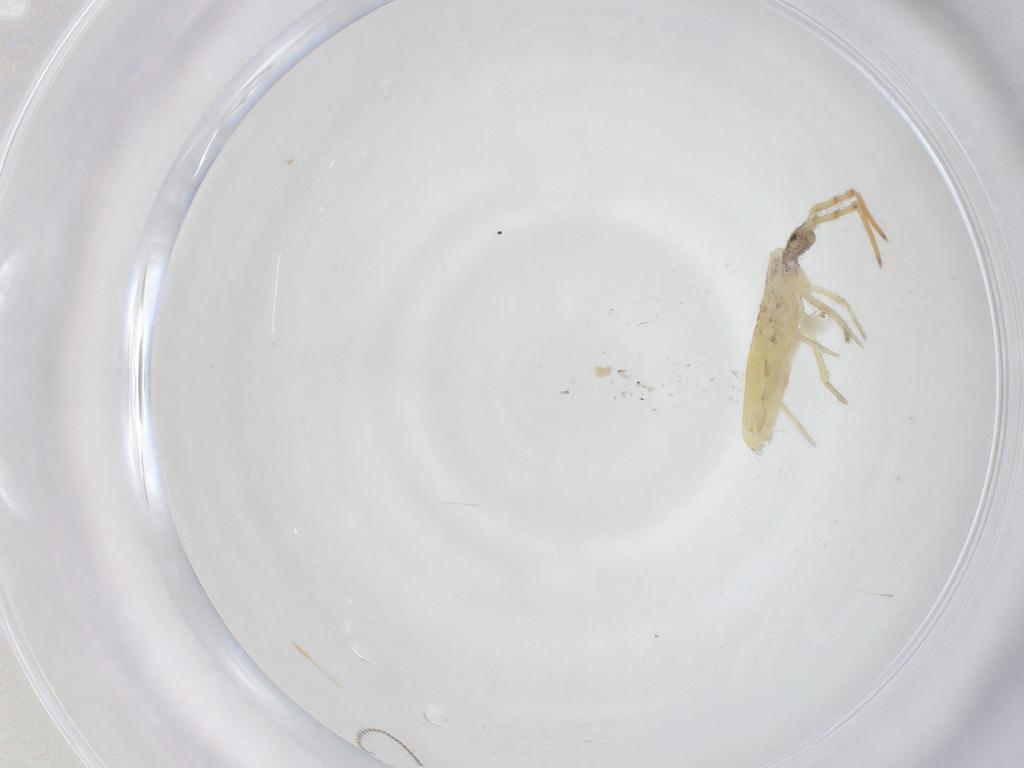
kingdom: Animalia
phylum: Arthropoda
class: Collembola
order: Entomobryomorpha
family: Entomobryidae
